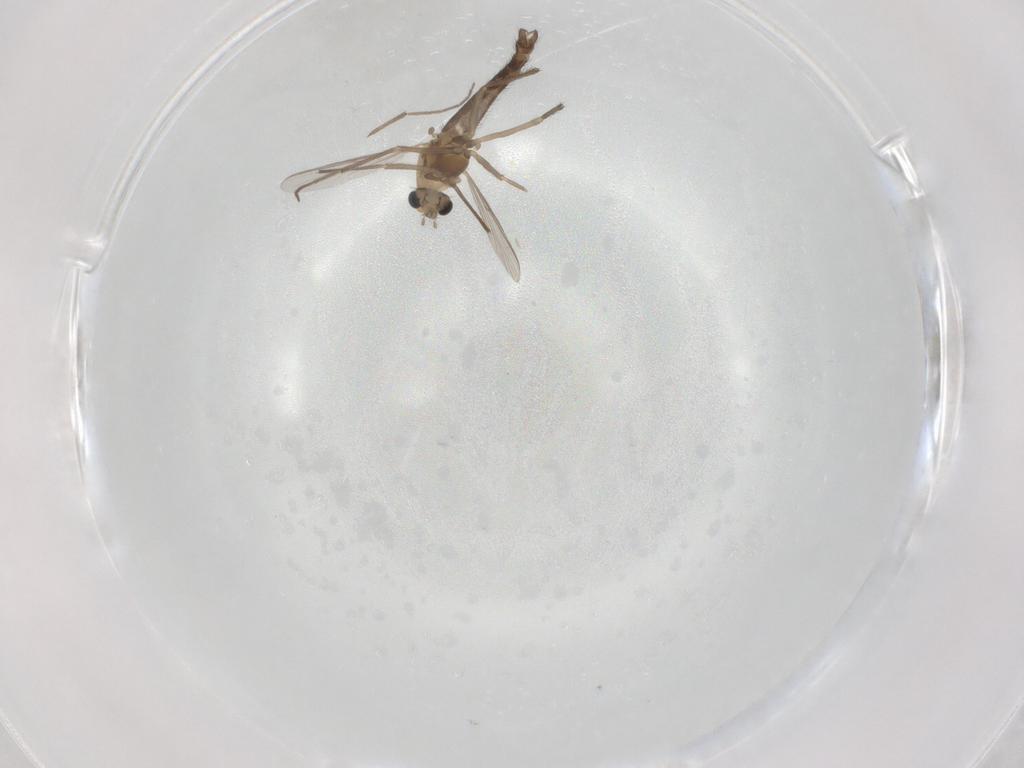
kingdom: Animalia
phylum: Arthropoda
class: Insecta
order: Diptera
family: Chironomidae
